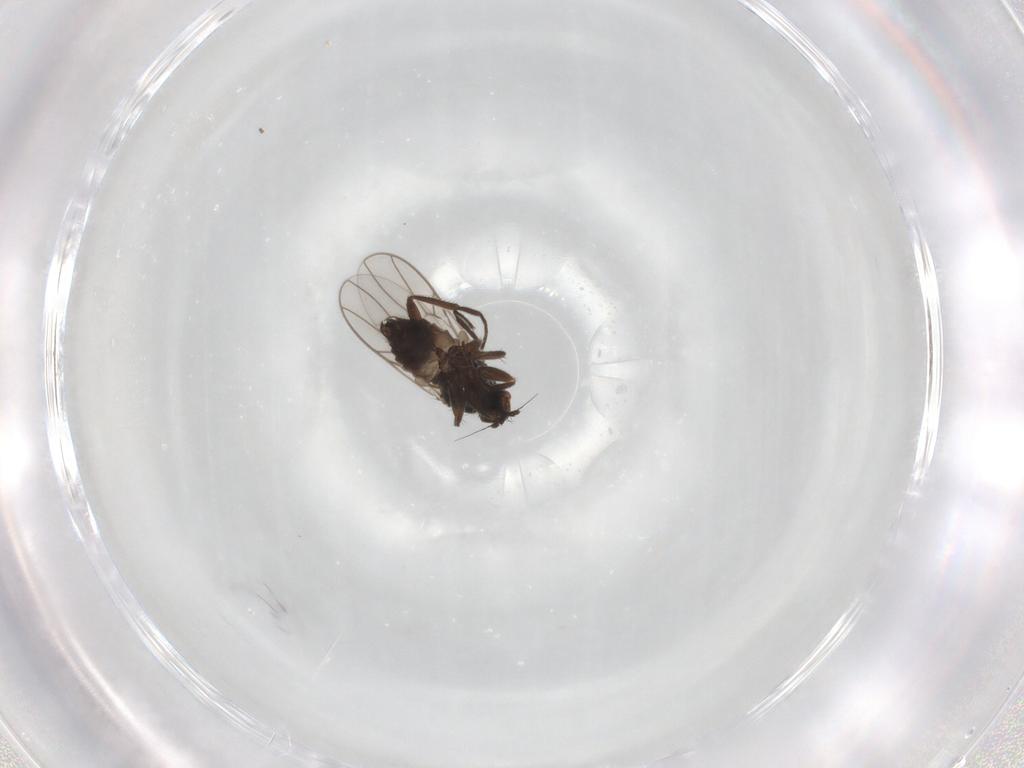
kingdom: Animalia
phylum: Arthropoda
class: Insecta
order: Diptera
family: Hybotidae
